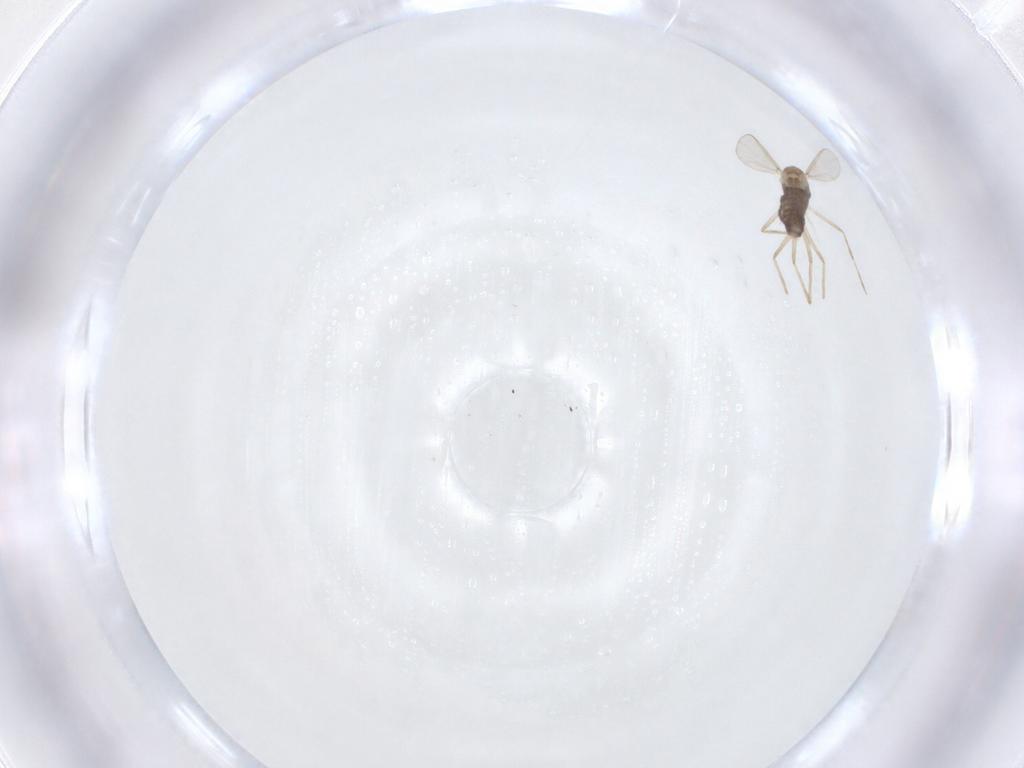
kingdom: Animalia
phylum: Arthropoda
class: Insecta
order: Diptera
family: Chironomidae
